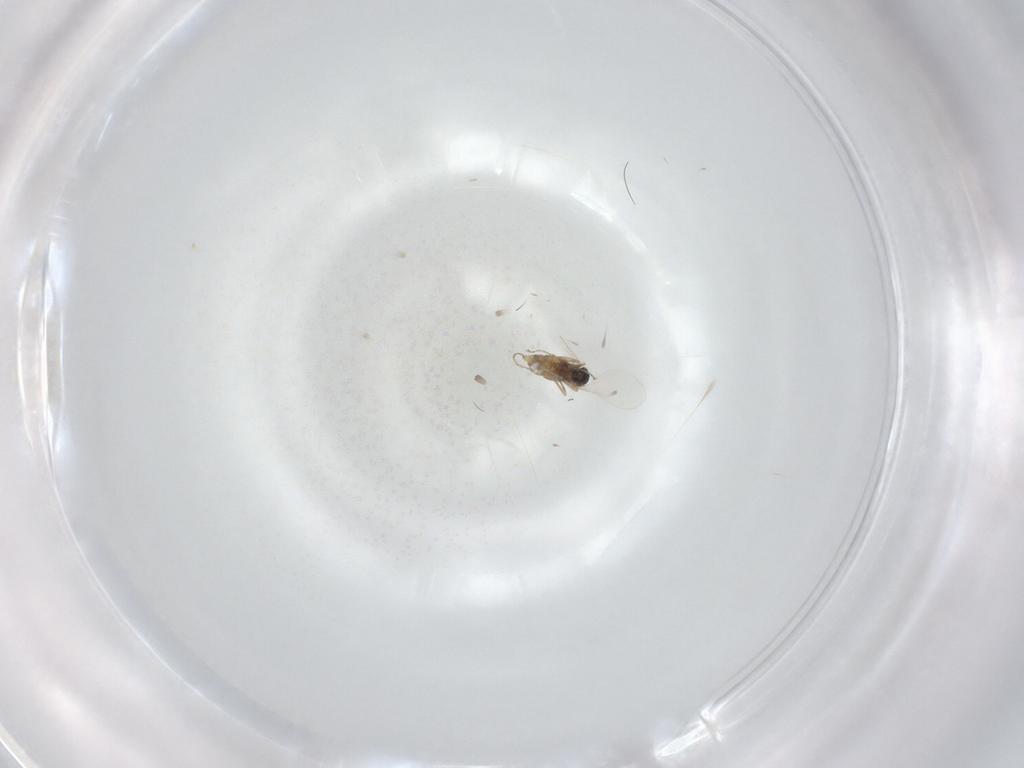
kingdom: Animalia
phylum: Arthropoda
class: Insecta
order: Diptera
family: Cecidomyiidae
